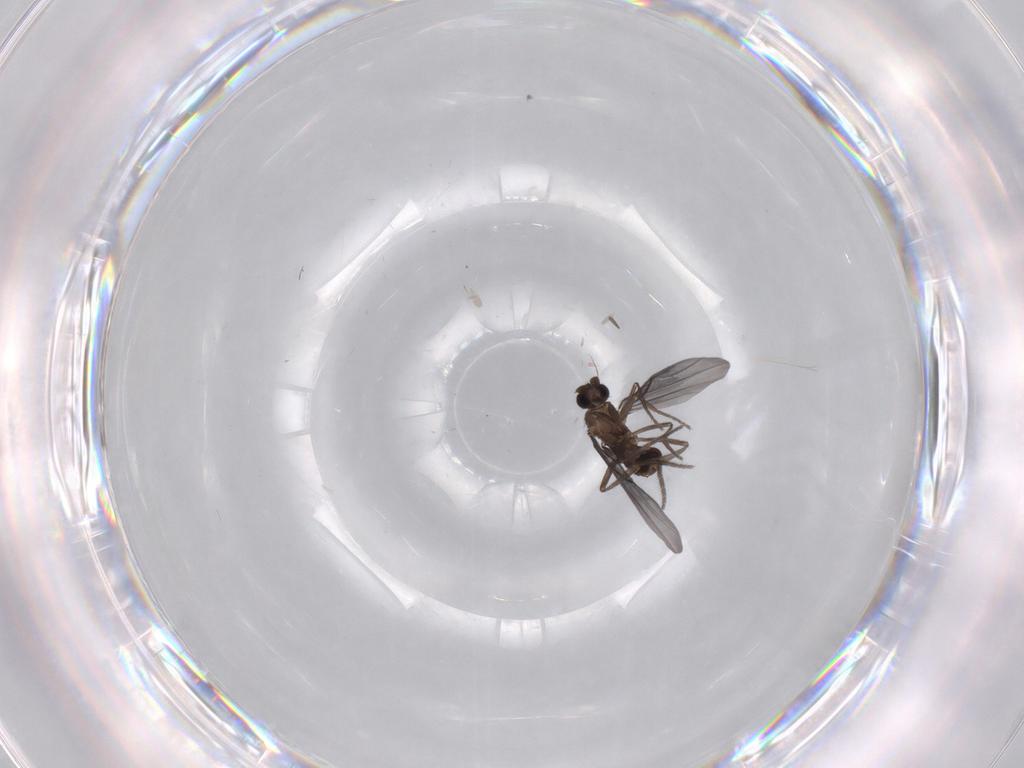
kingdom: Animalia
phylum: Arthropoda
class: Insecta
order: Diptera
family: Phoridae
